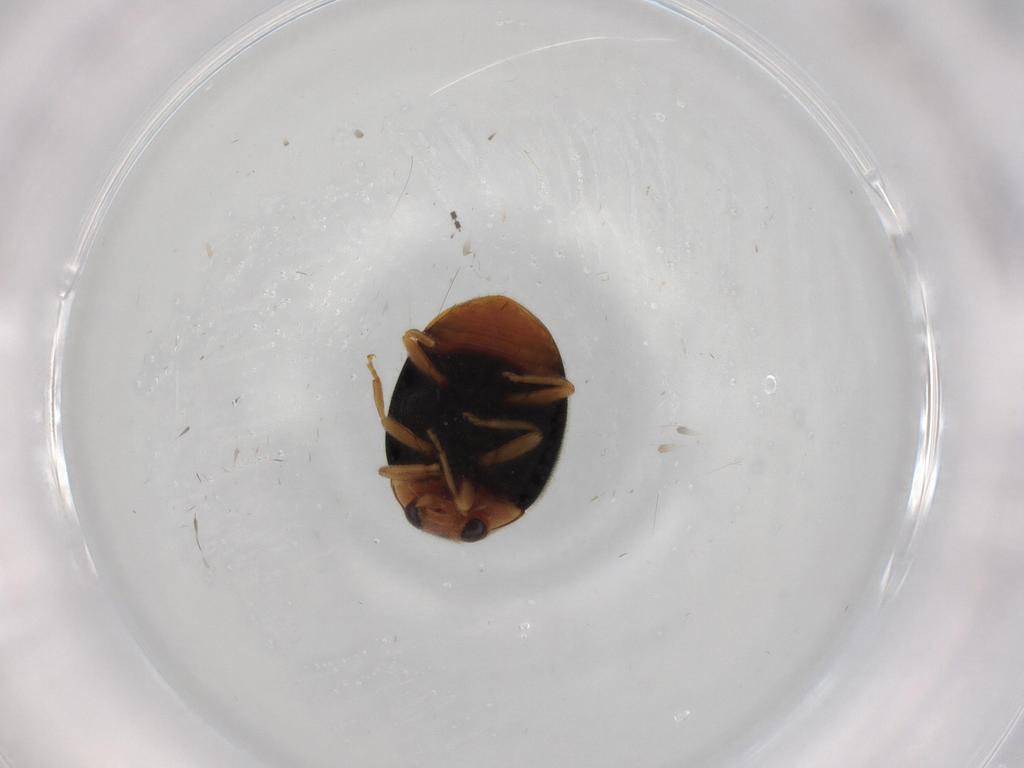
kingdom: Animalia
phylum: Arthropoda
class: Insecta
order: Coleoptera
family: Coccinellidae
